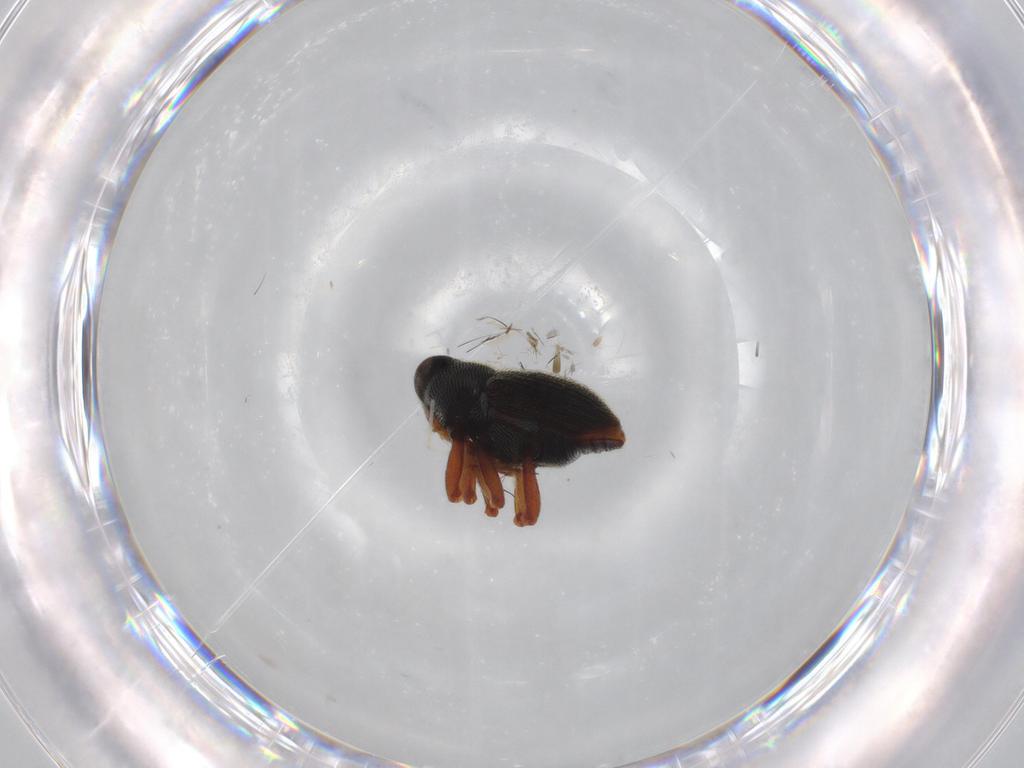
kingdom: Animalia
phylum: Arthropoda
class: Insecta
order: Coleoptera
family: Curculionidae
